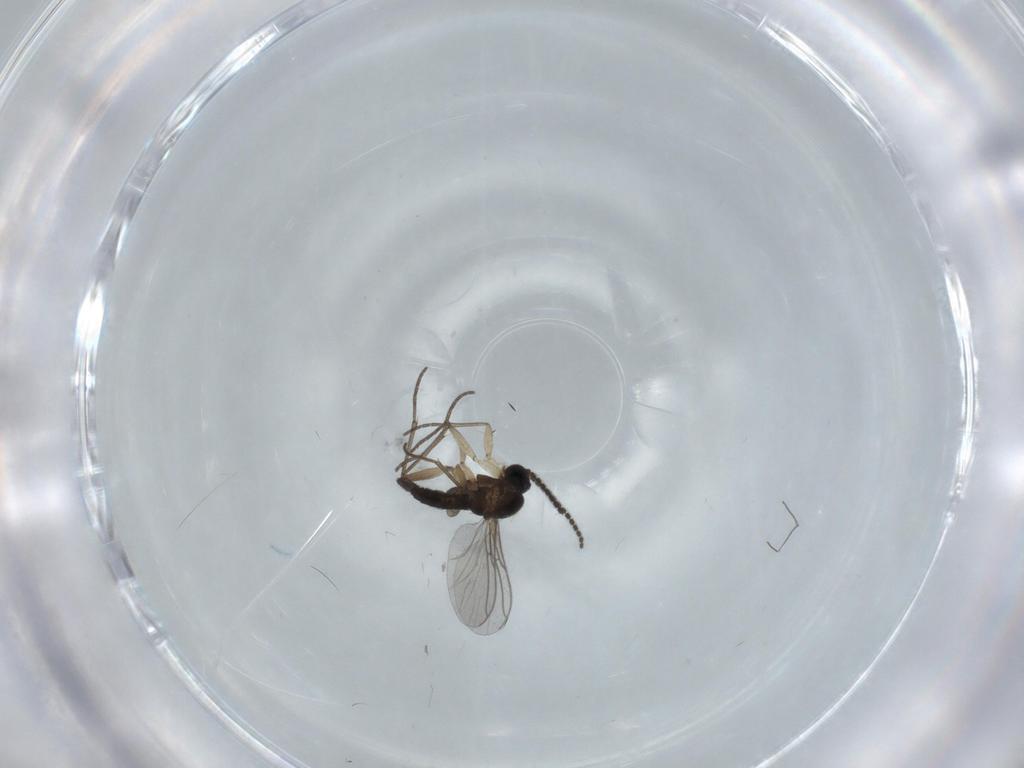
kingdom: Animalia
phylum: Arthropoda
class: Insecta
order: Diptera
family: Sciaridae
